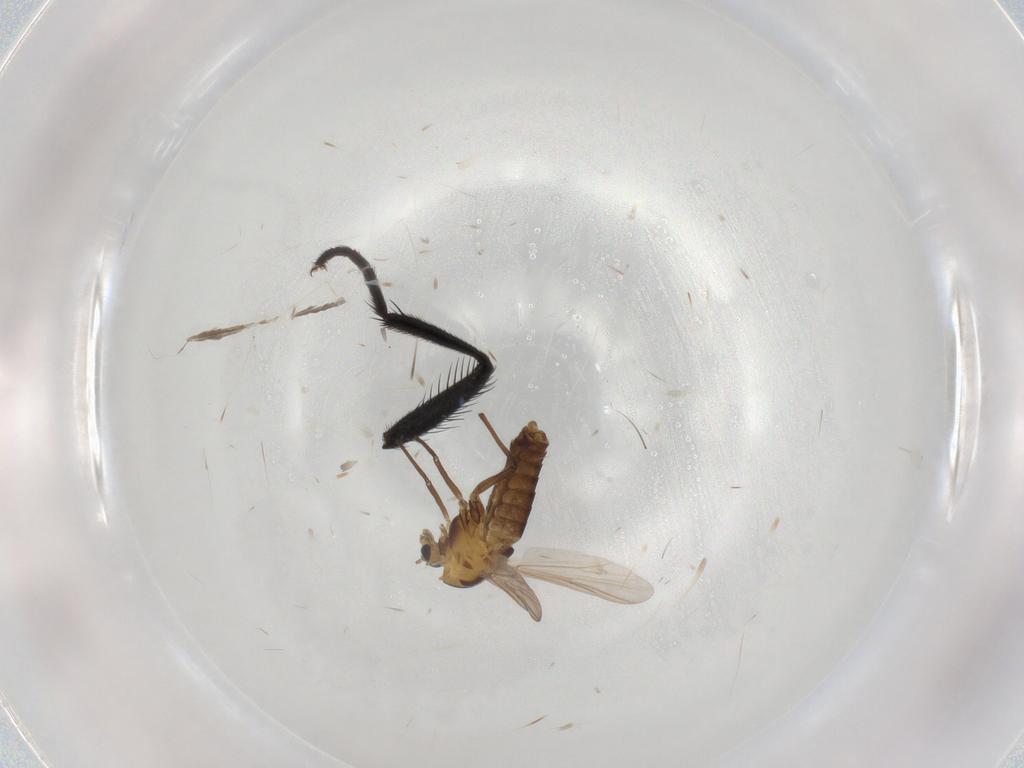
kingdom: Animalia
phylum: Arthropoda
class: Insecta
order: Diptera
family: Chironomidae
